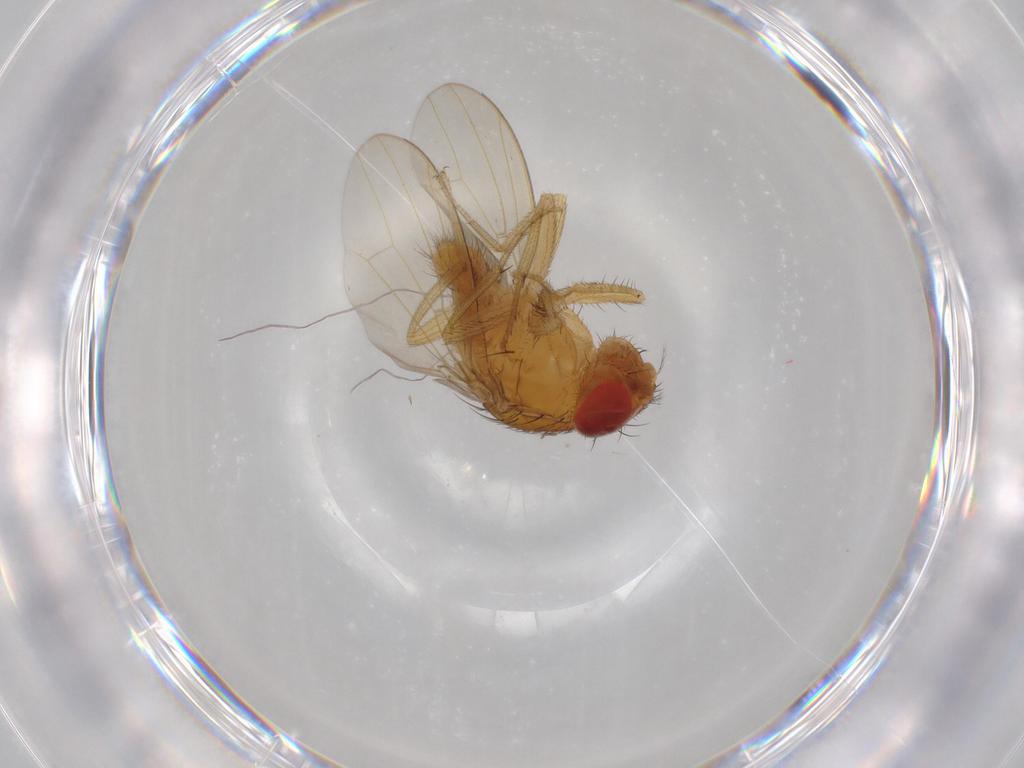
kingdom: Animalia
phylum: Arthropoda
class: Insecta
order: Diptera
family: Drosophilidae
